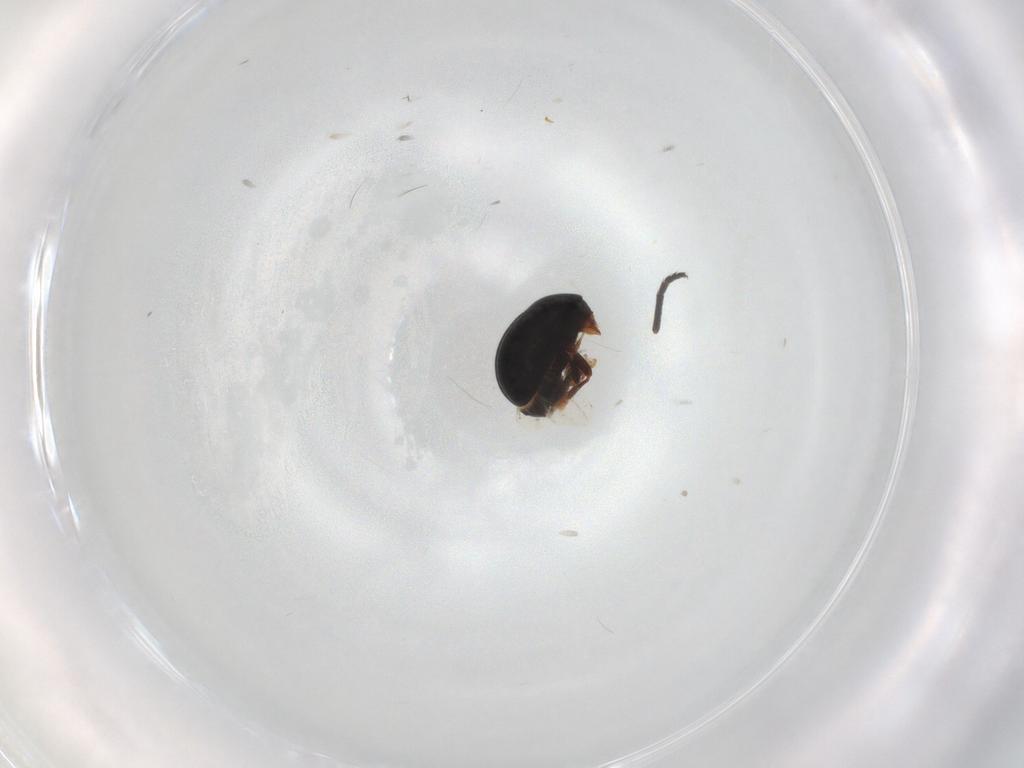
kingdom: Animalia
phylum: Arthropoda
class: Insecta
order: Coleoptera
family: Anthribidae
